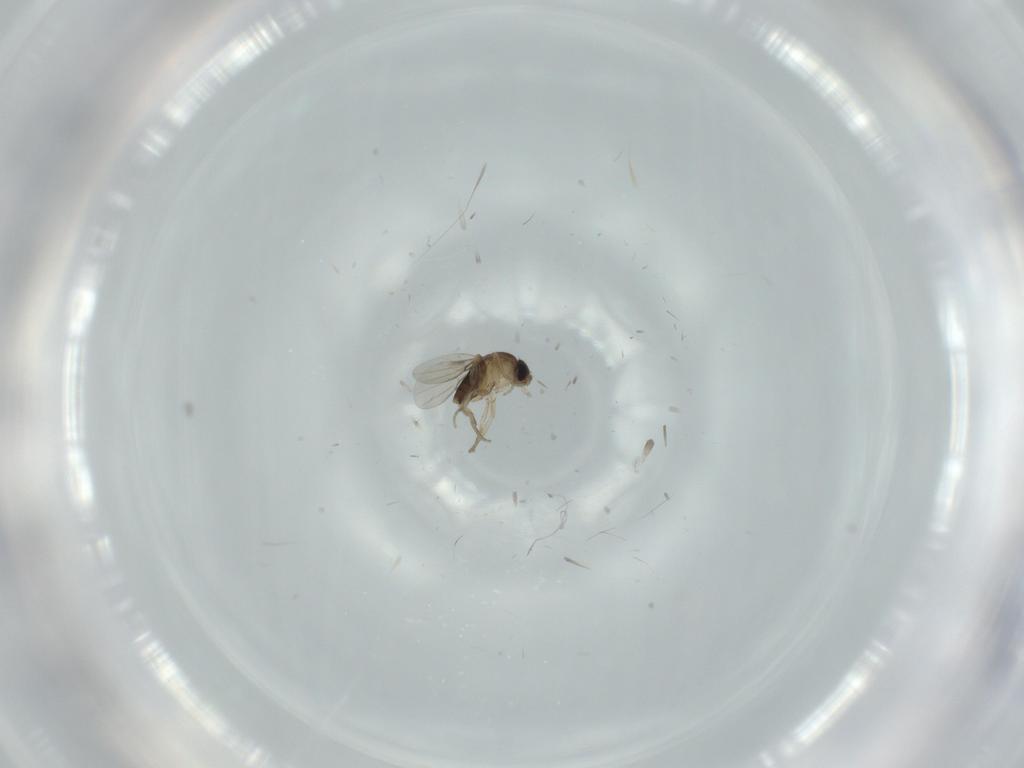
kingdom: Animalia
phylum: Arthropoda
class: Insecta
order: Diptera
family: Phoridae
